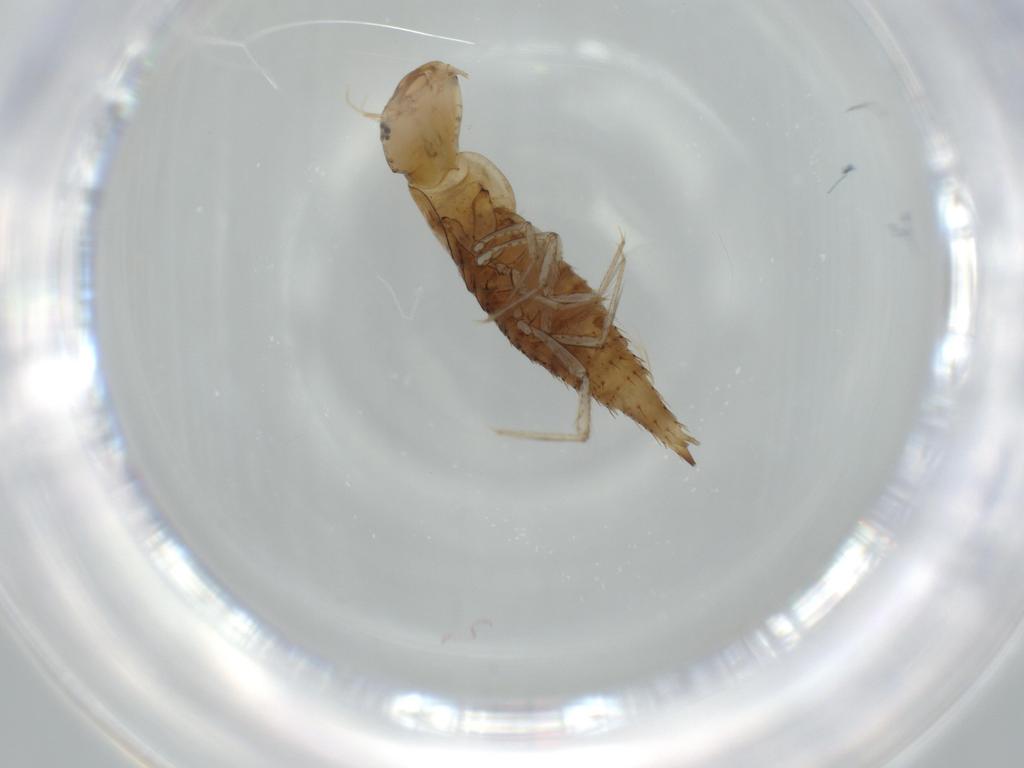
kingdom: Animalia
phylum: Arthropoda
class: Insecta
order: Coleoptera
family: Dytiscidae
